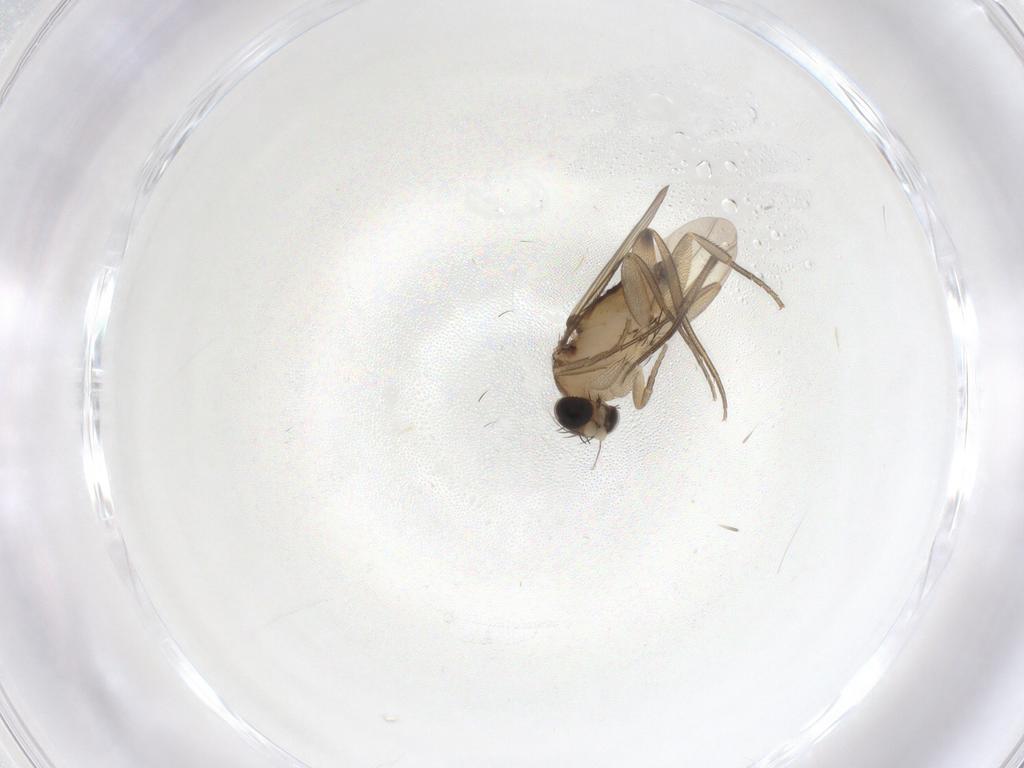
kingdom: Animalia
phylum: Arthropoda
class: Insecta
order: Diptera
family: Phoridae
